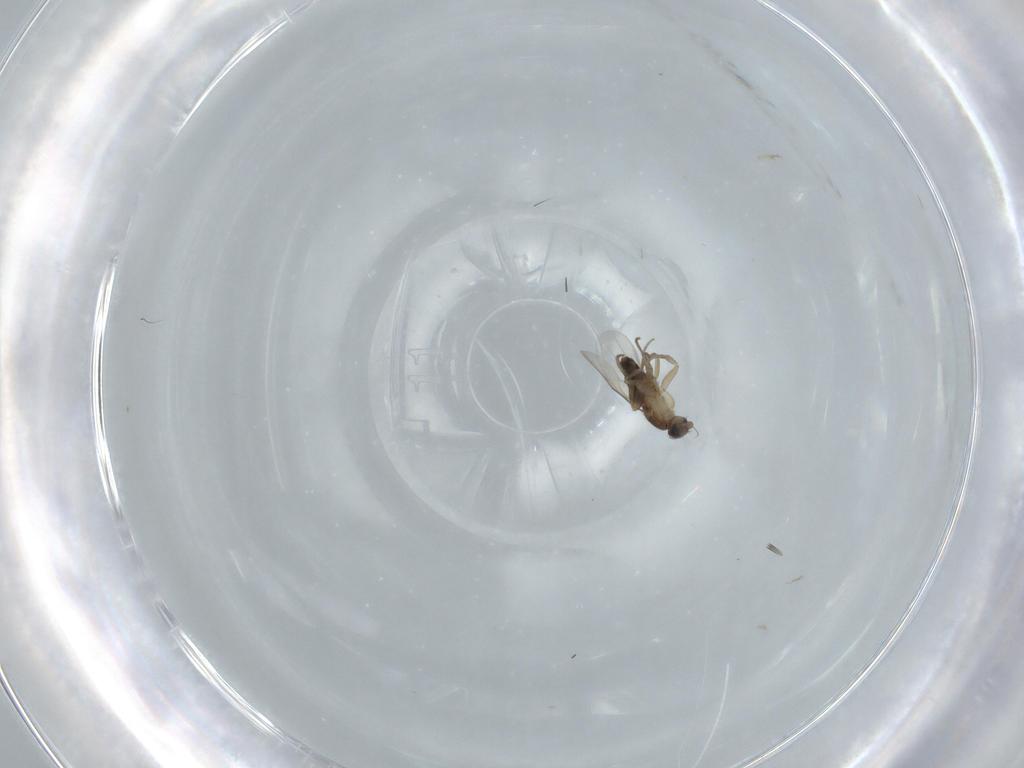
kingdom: Animalia
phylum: Arthropoda
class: Insecta
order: Diptera
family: Phoridae
